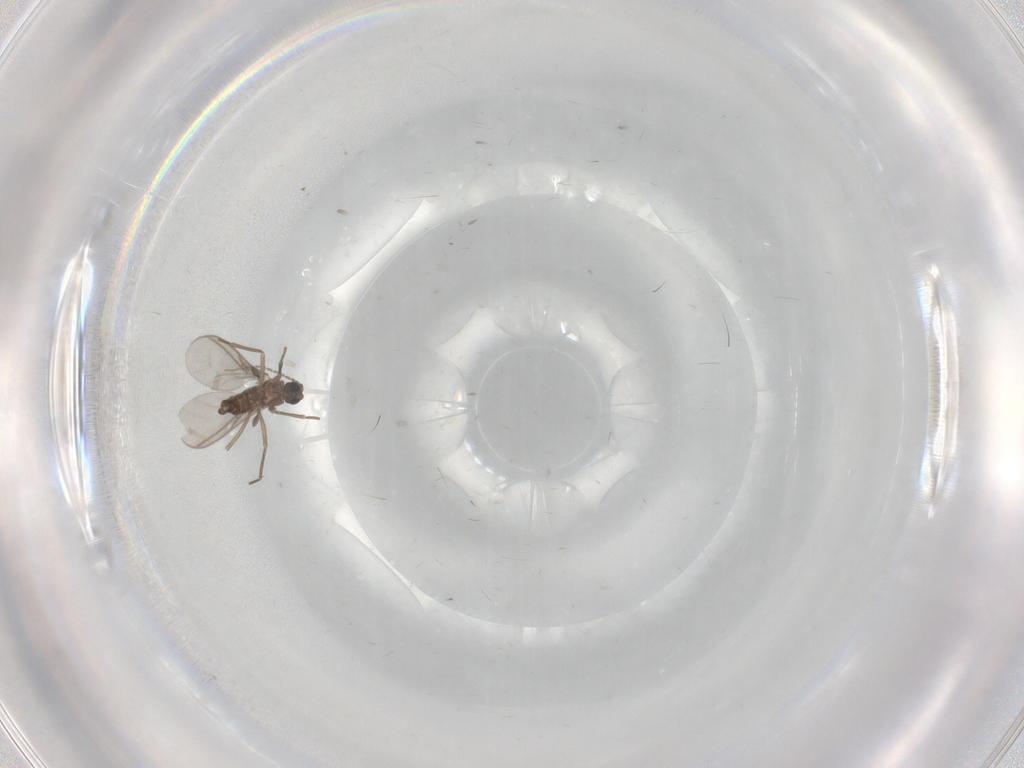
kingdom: Animalia
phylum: Arthropoda
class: Insecta
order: Diptera
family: Sciaridae
